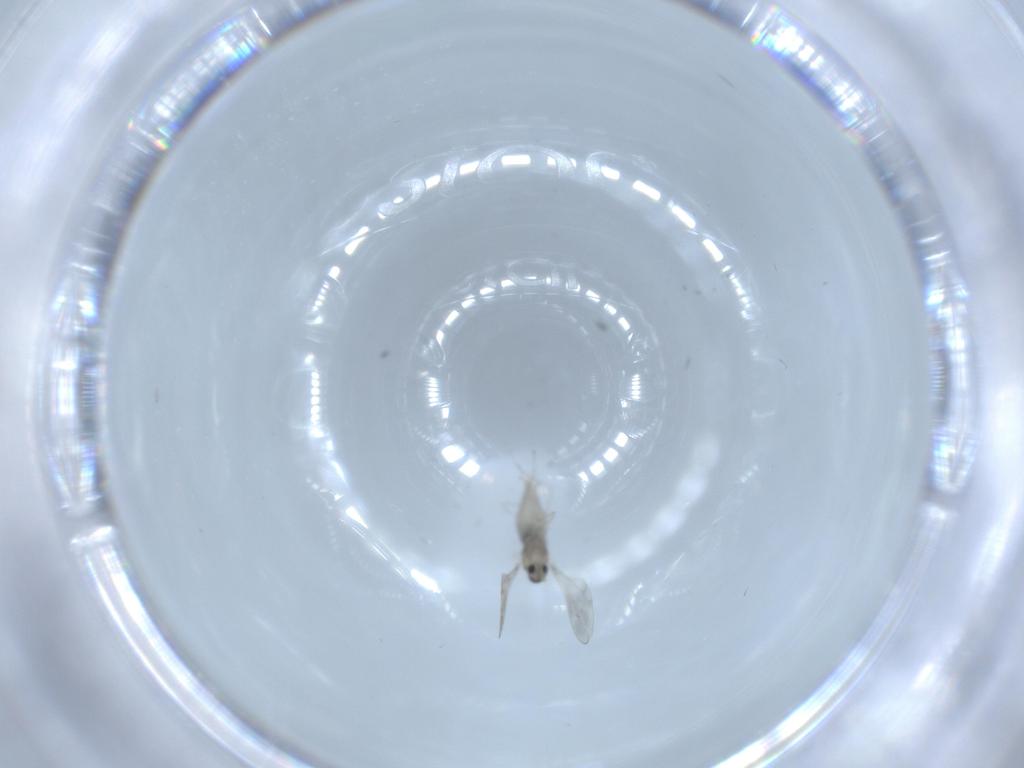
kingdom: Animalia
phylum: Arthropoda
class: Insecta
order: Diptera
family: Cecidomyiidae
